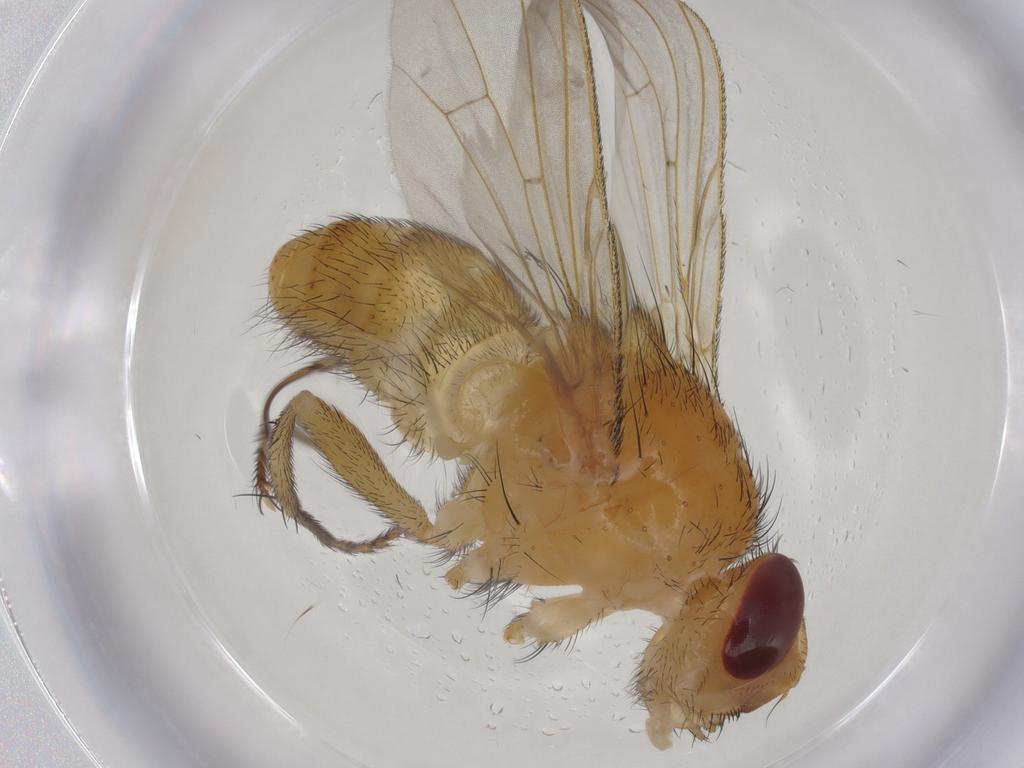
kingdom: Animalia
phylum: Arthropoda
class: Insecta
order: Diptera
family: Tachinidae
